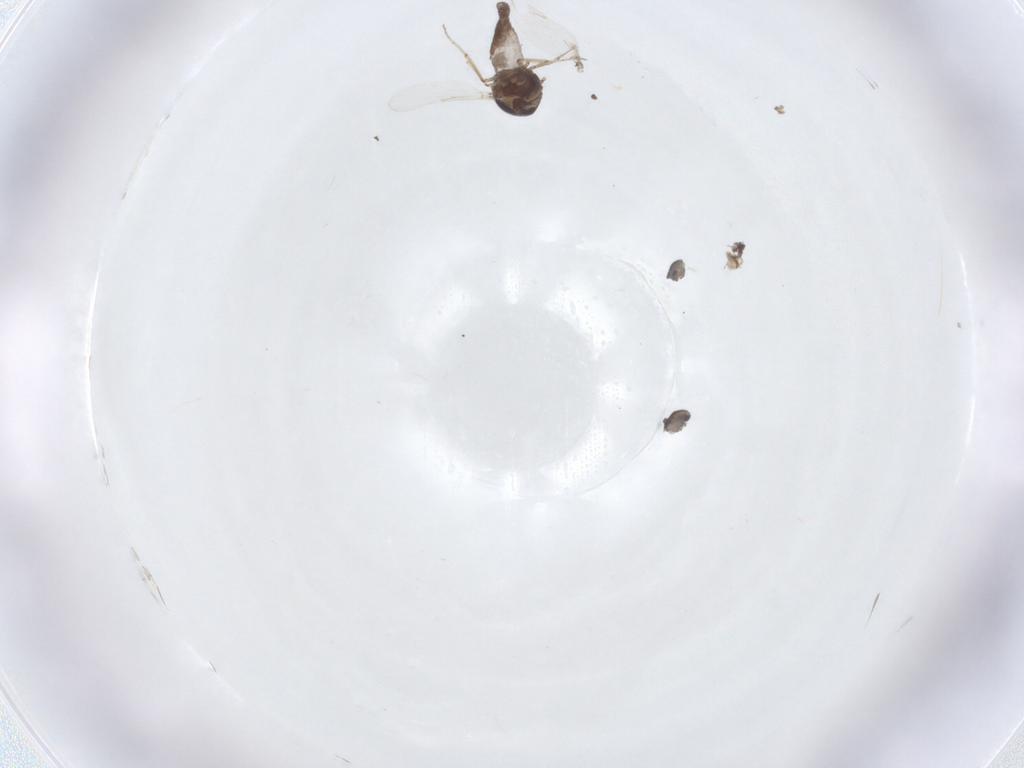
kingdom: Animalia
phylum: Arthropoda
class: Insecta
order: Diptera
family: Ceratopogonidae
